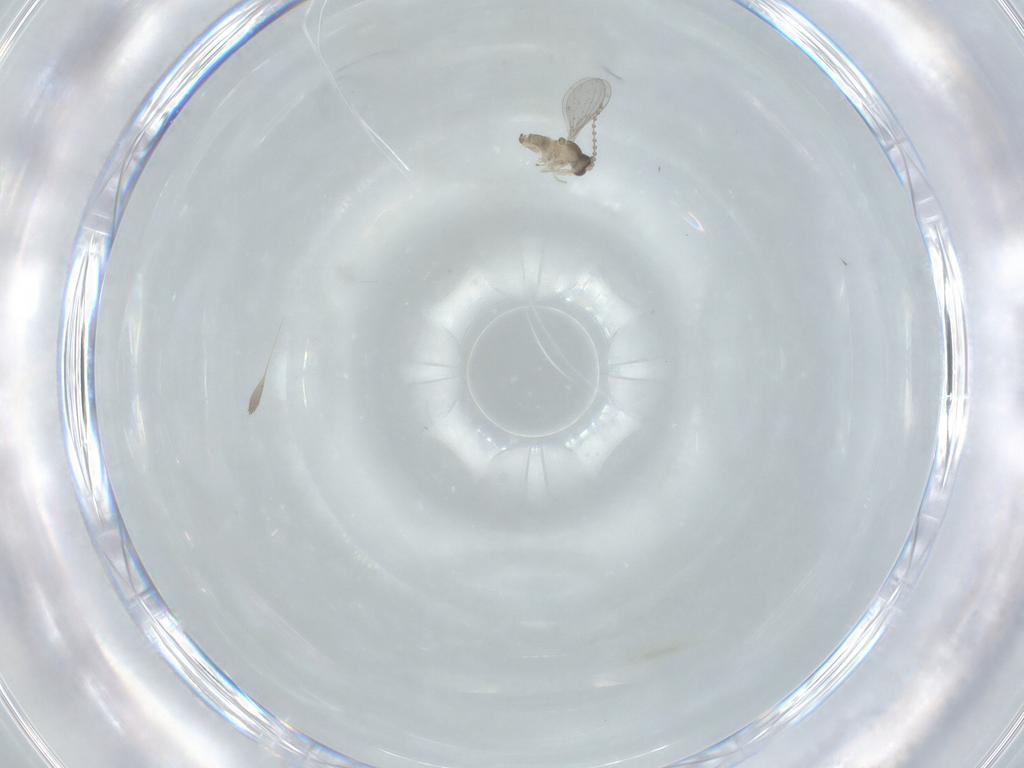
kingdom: Animalia
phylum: Arthropoda
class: Insecta
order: Diptera
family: Cecidomyiidae
